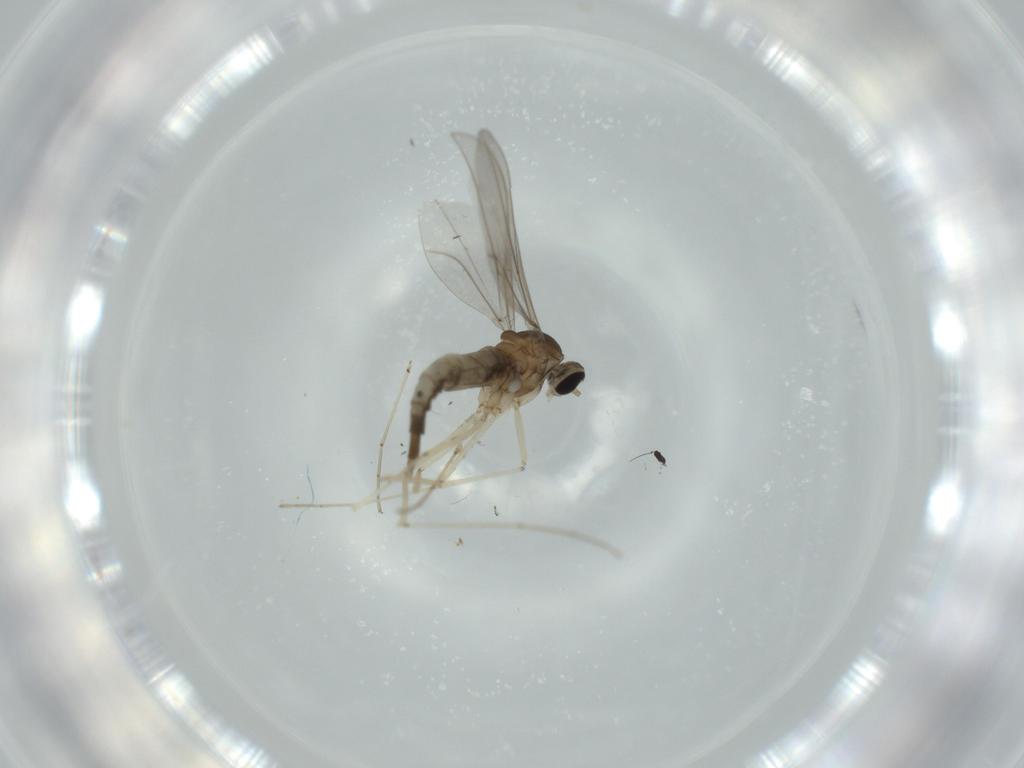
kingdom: Animalia
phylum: Arthropoda
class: Insecta
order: Diptera
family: Cecidomyiidae
